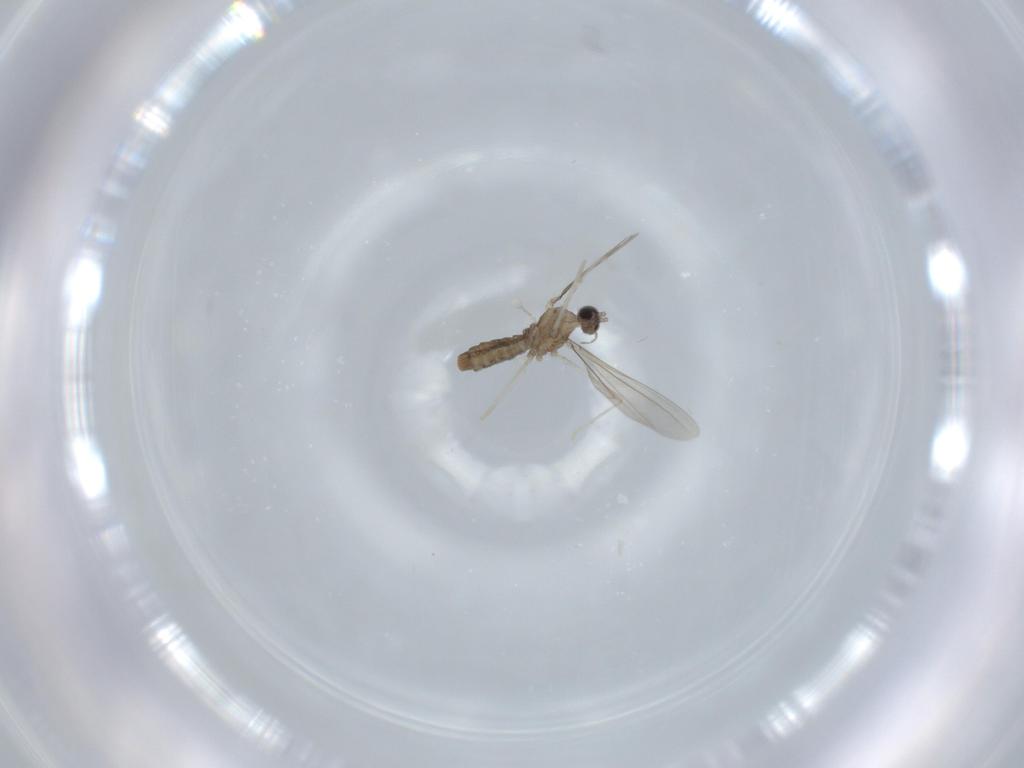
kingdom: Animalia
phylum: Arthropoda
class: Insecta
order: Diptera
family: Cecidomyiidae
